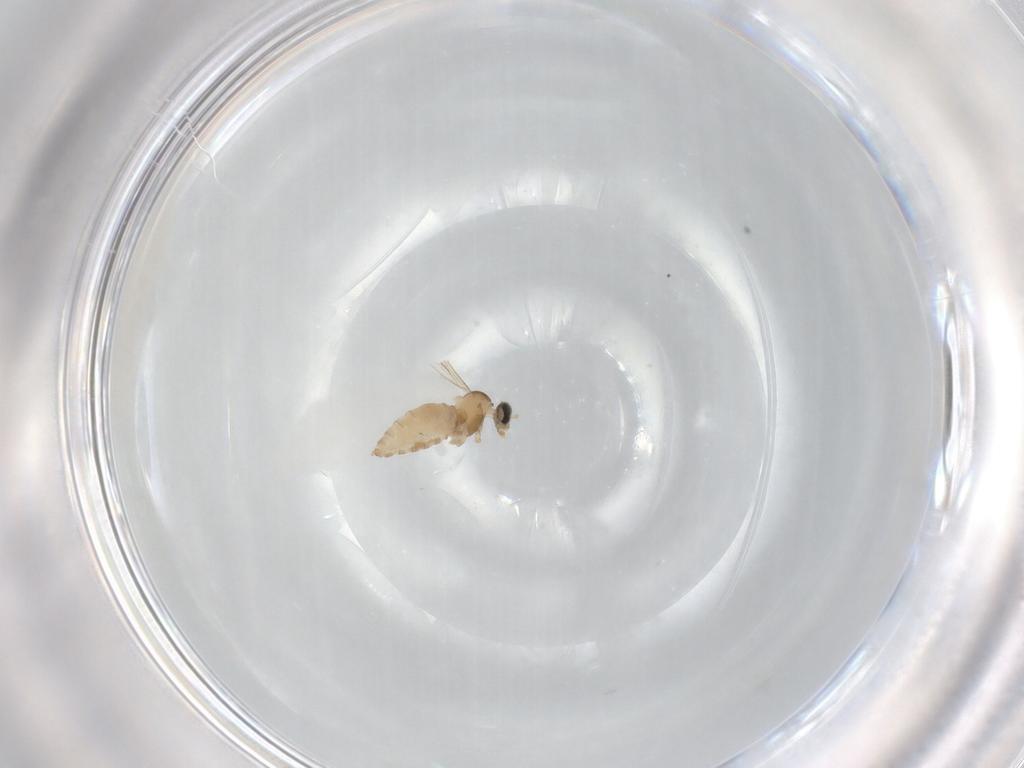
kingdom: Animalia
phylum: Arthropoda
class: Insecta
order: Diptera
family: Cecidomyiidae
